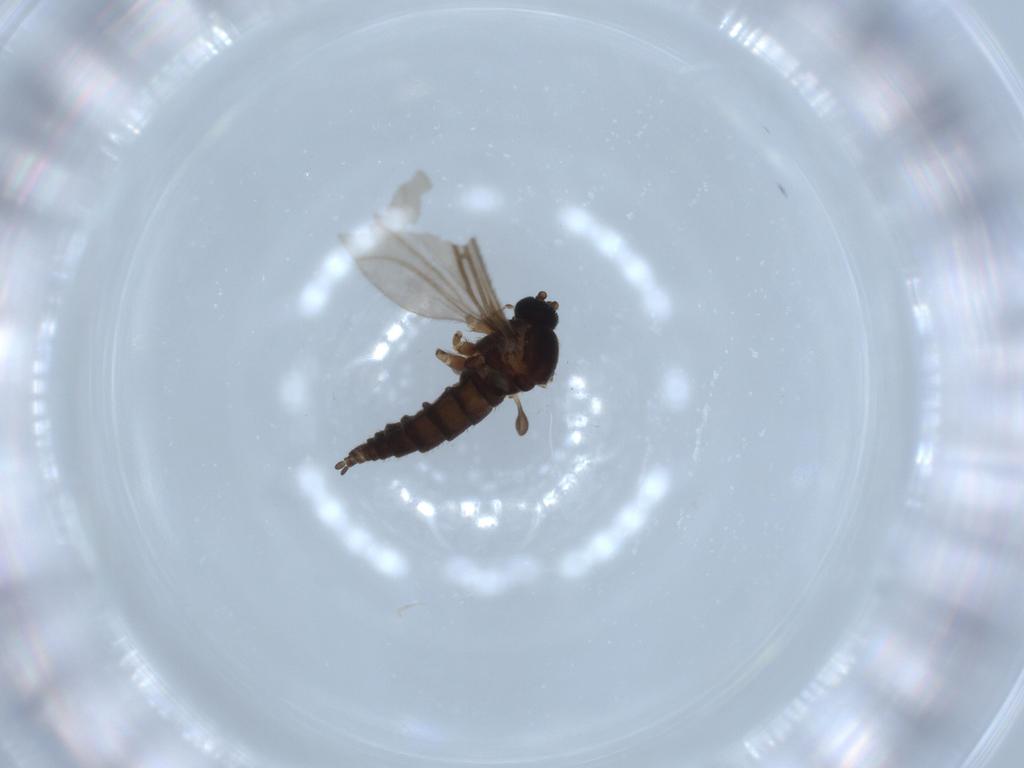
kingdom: Animalia
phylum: Arthropoda
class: Insecta
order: Diptera
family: Sciaridae
